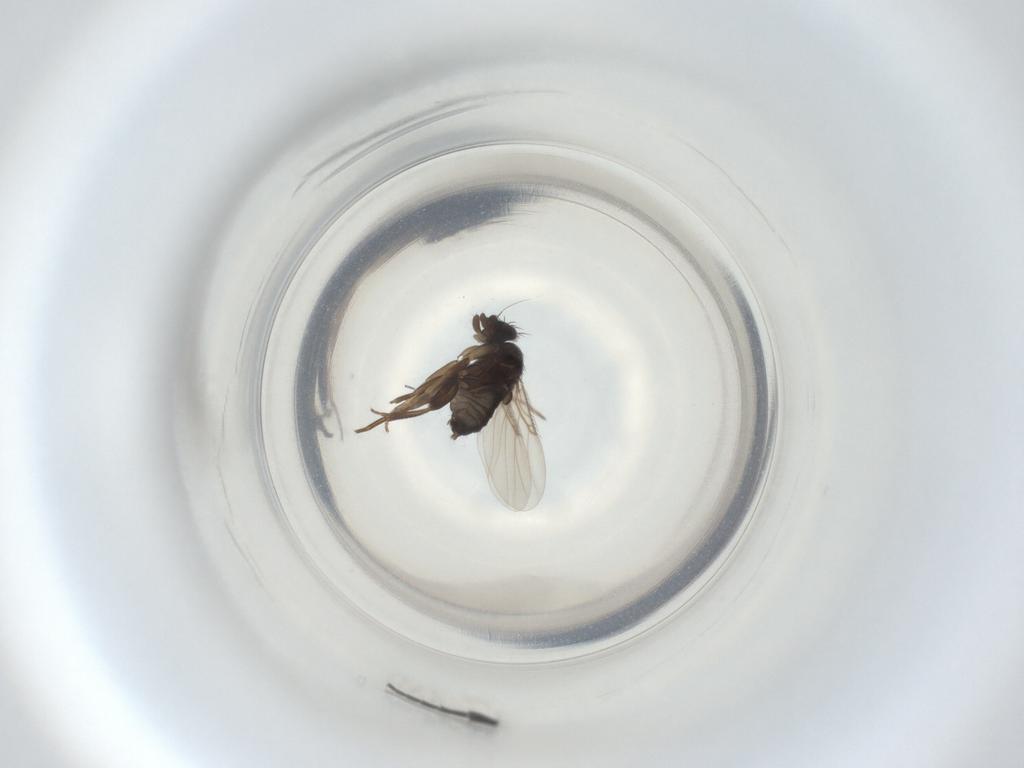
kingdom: Animalia
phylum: Arthropoda
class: Insecta
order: Diptera
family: Phoridae
